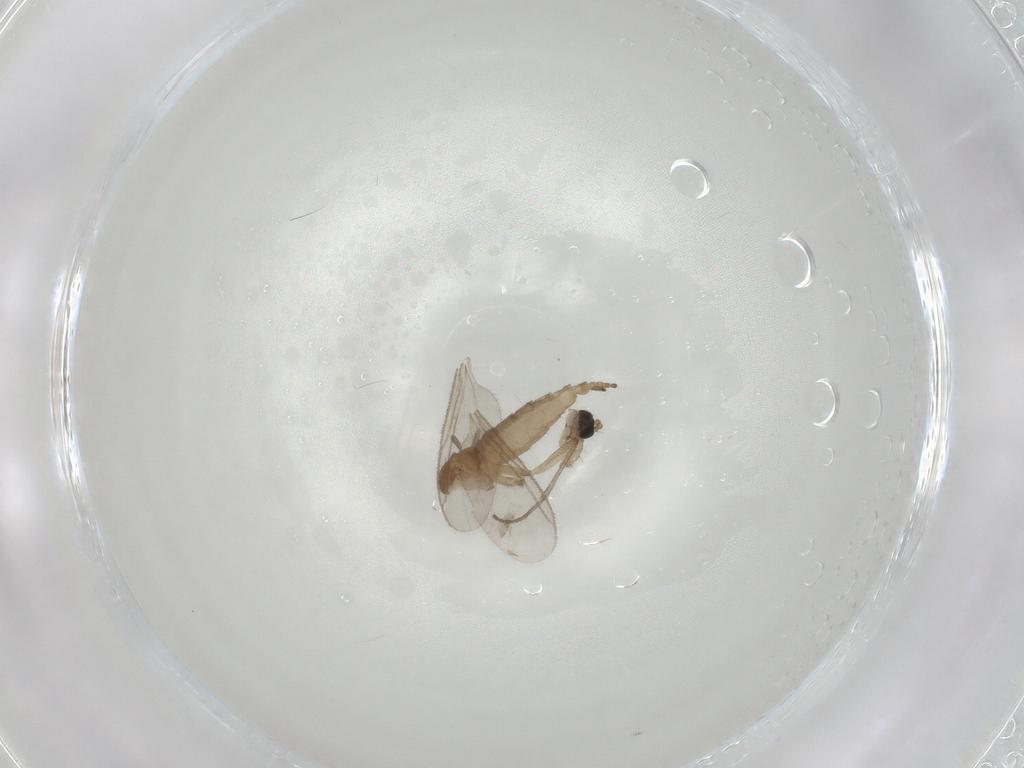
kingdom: Animalia
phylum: Arthropoda
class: Insecta
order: Diptera
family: Sciaridae
